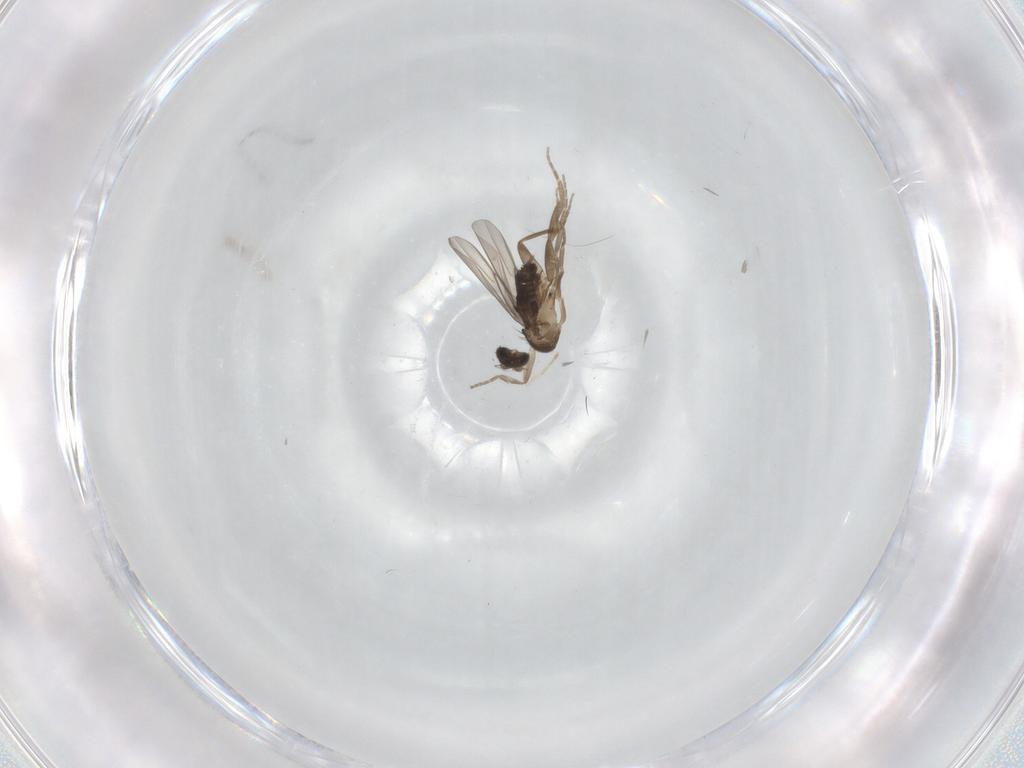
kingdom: Animalia
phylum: Arthropoda
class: Insecta
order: Diptera
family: Phoridae
